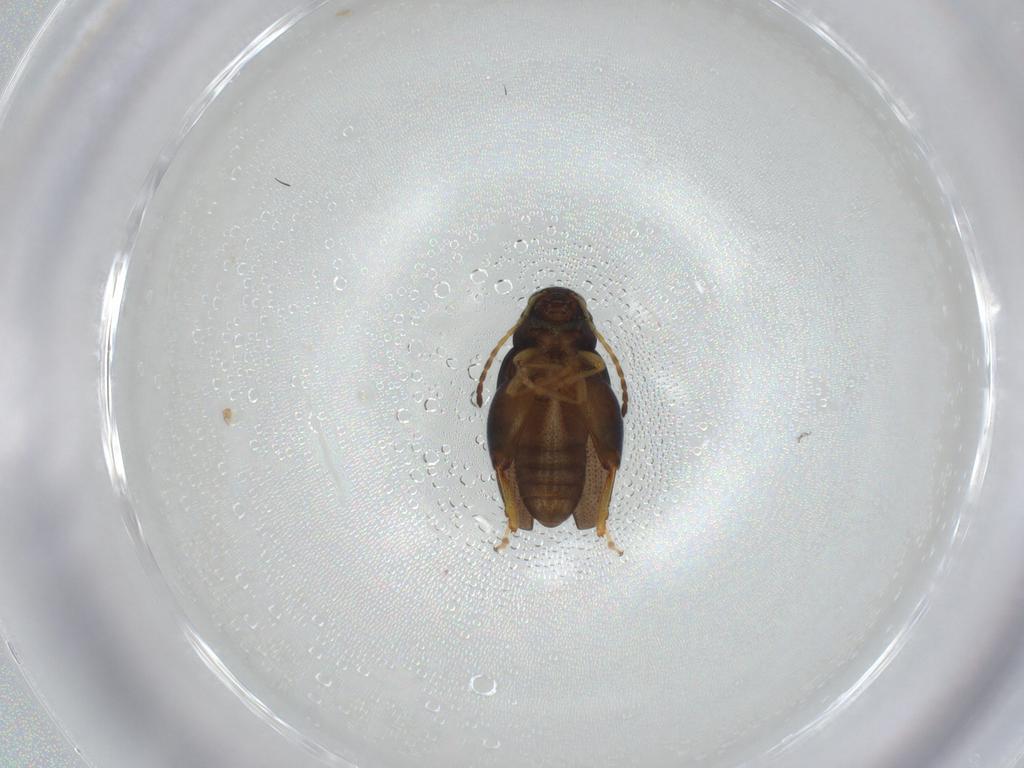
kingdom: Animalia
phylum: Arthropoda
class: Insecta
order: Coleoptera
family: Chrysomelidae
